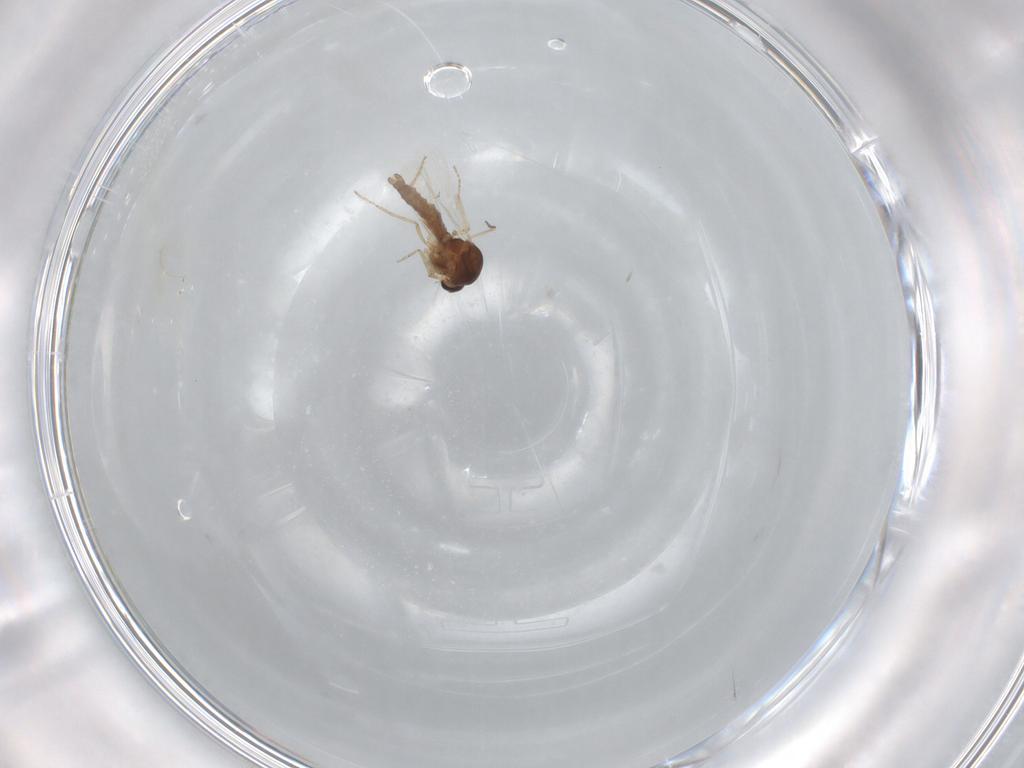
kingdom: Animalia
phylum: Arthropoda
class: Insecta
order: Diptera
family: Ceratopogonidae
